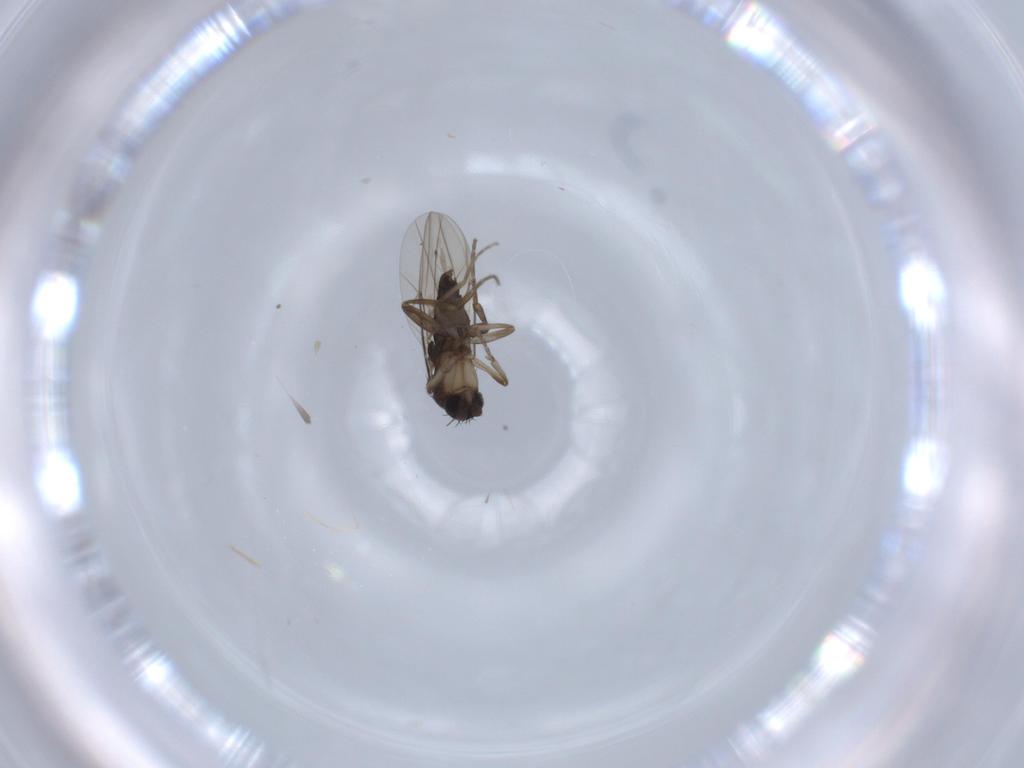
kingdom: Animalia
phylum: Arthropoda
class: Insecta
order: Diptera
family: Phoridae
